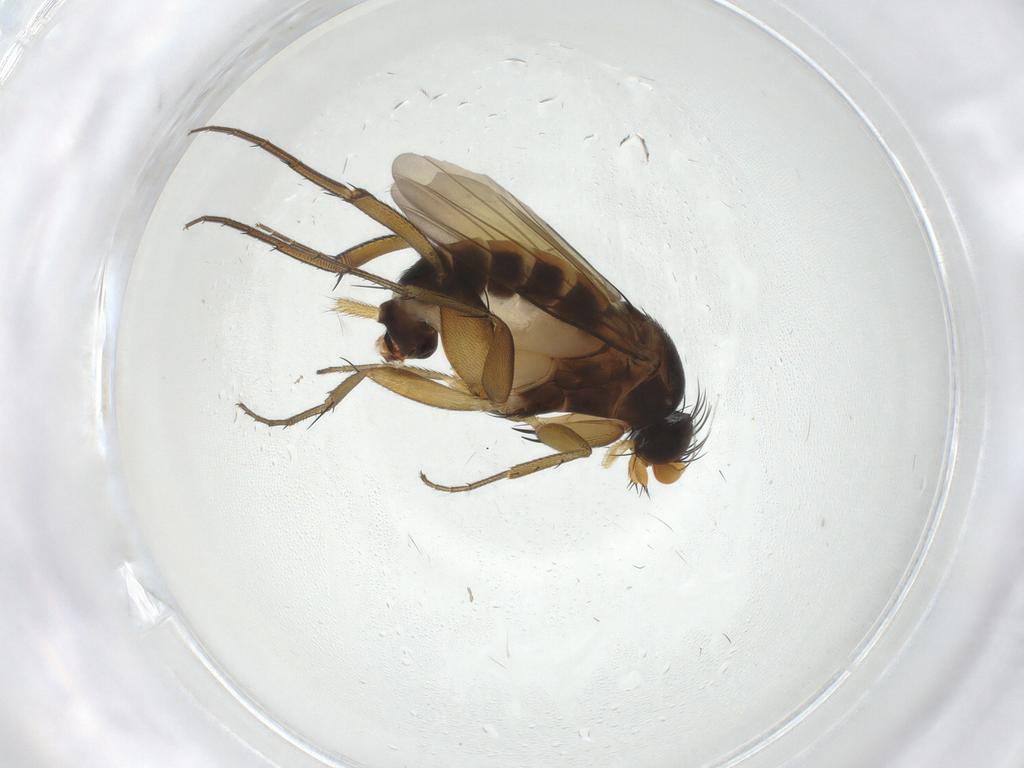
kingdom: Animalia
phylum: Arthropoda
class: Insecta
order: Diptera
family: Phoridae
